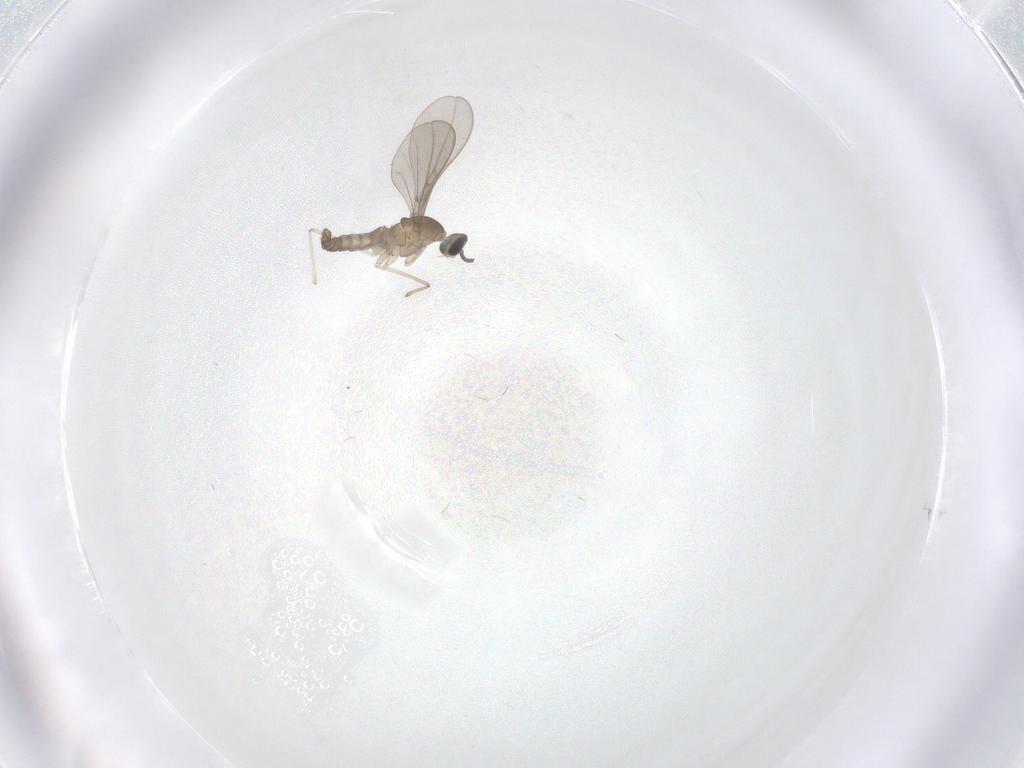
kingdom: Animalia
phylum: Arthropoda
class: Insecta
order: Diptera
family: Cecidomyiidae
